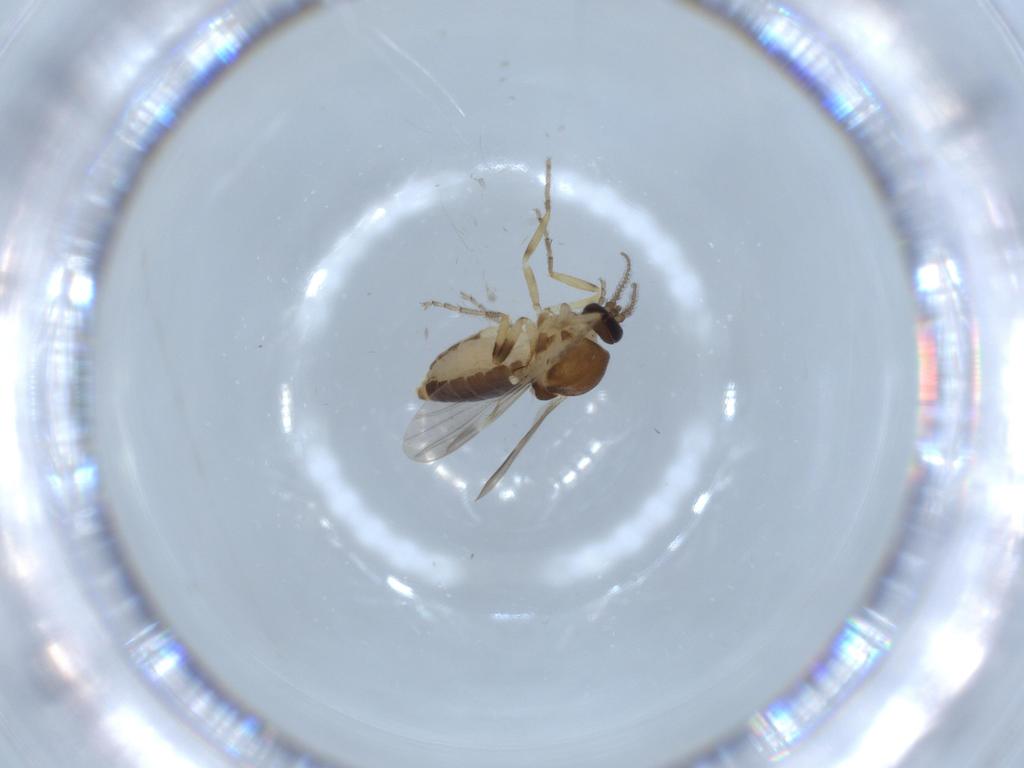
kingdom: Animalia
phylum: Arthropoda
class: Insecta
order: Diptera
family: Ceratopogonidae
